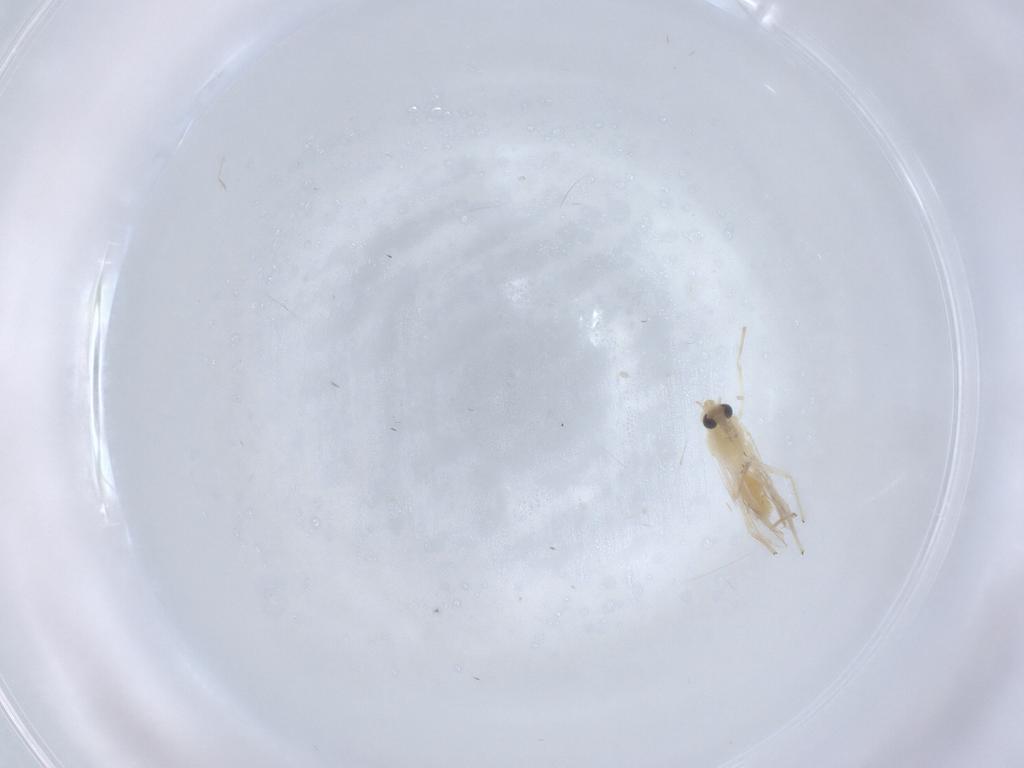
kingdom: Animalia
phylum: Arthropoda
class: Insecta
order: Diptera
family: Chironomidae
